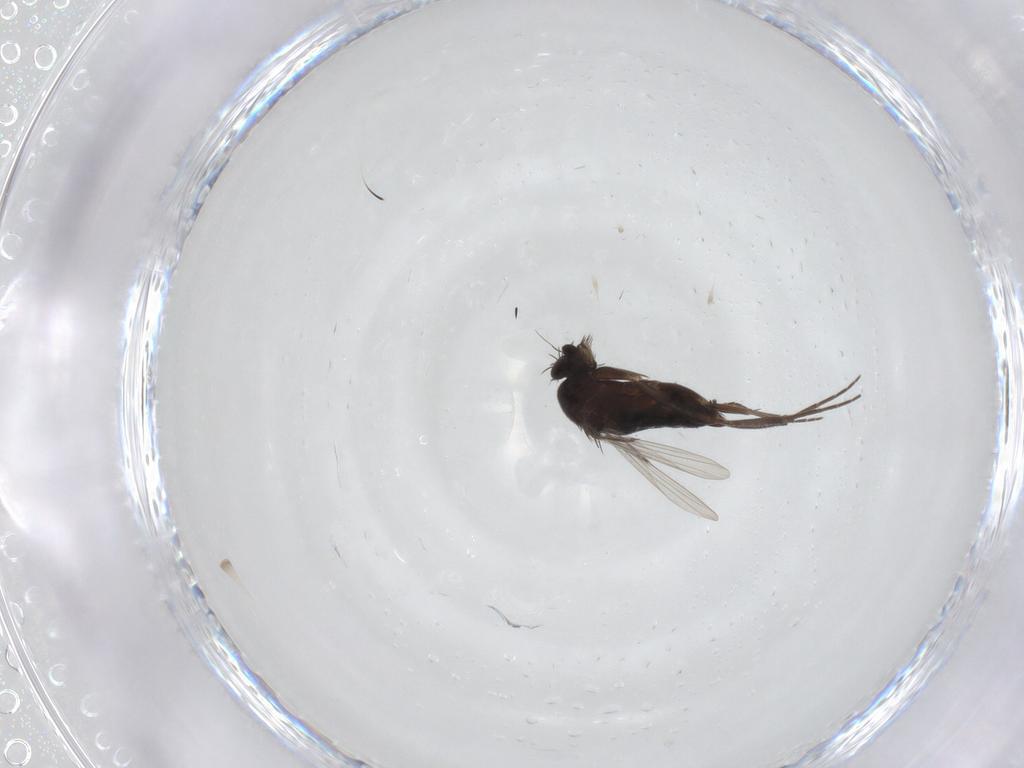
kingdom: Animalia
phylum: Arthropoda
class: Insecta
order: Diptera
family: Phoridae
